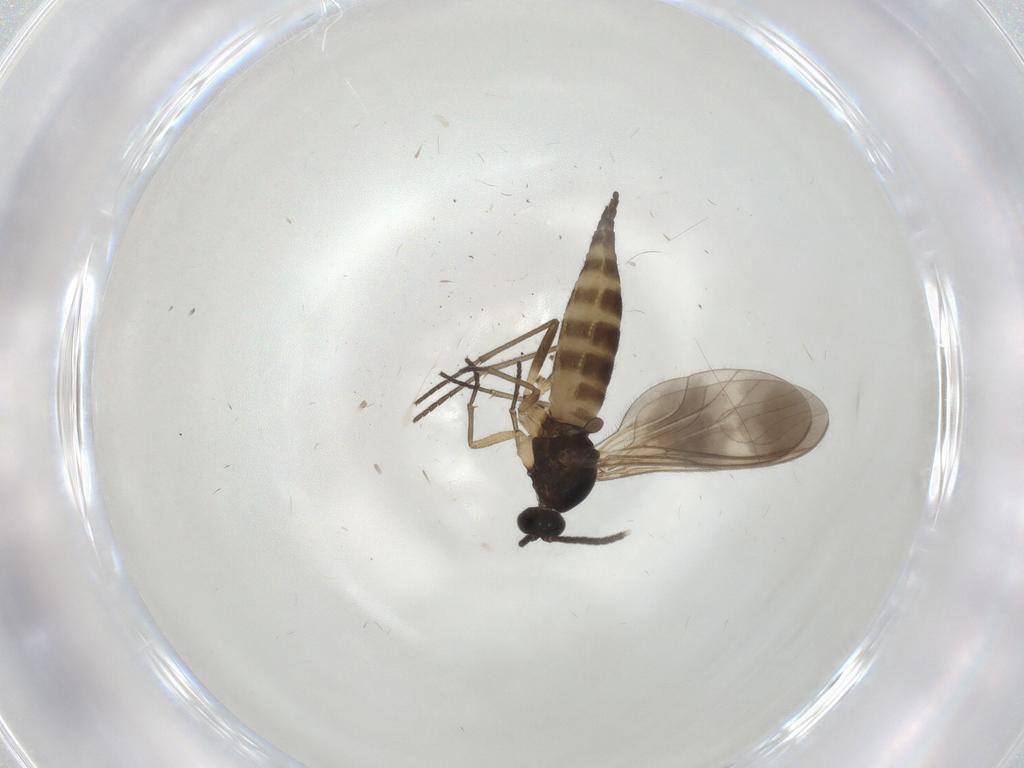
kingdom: Animalia
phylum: Arthropoda
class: Insecta
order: Diptera
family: Sciaridae
